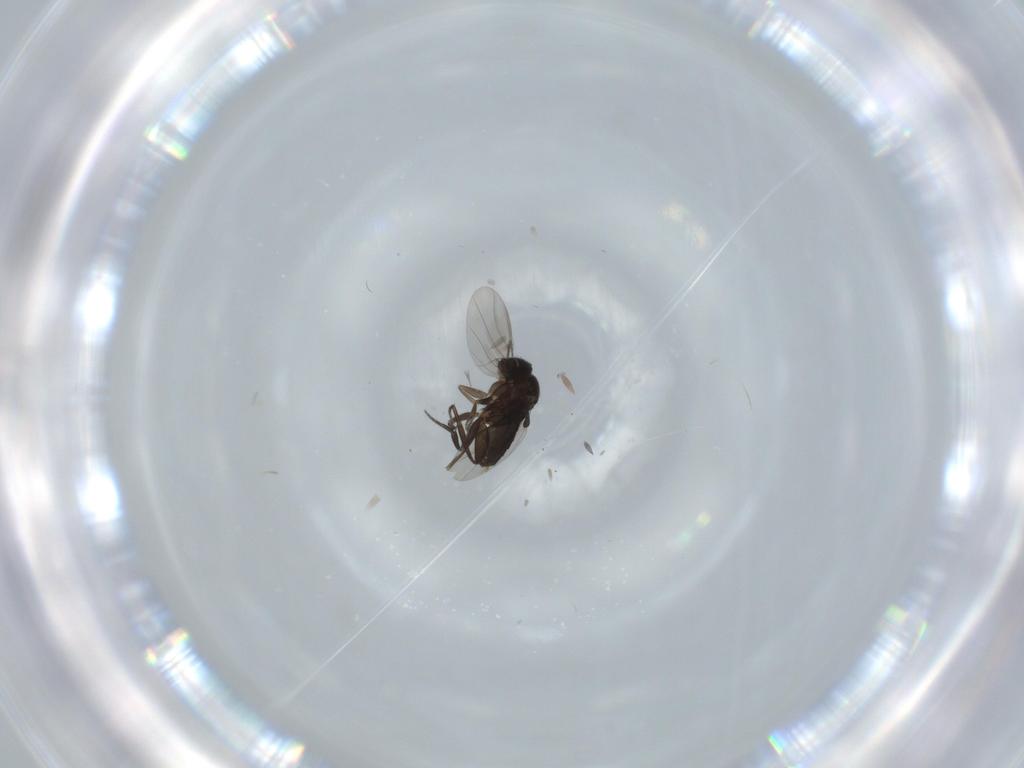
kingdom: Animalia
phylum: Arthropoda
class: Insecta
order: Diptera
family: Phoridae
